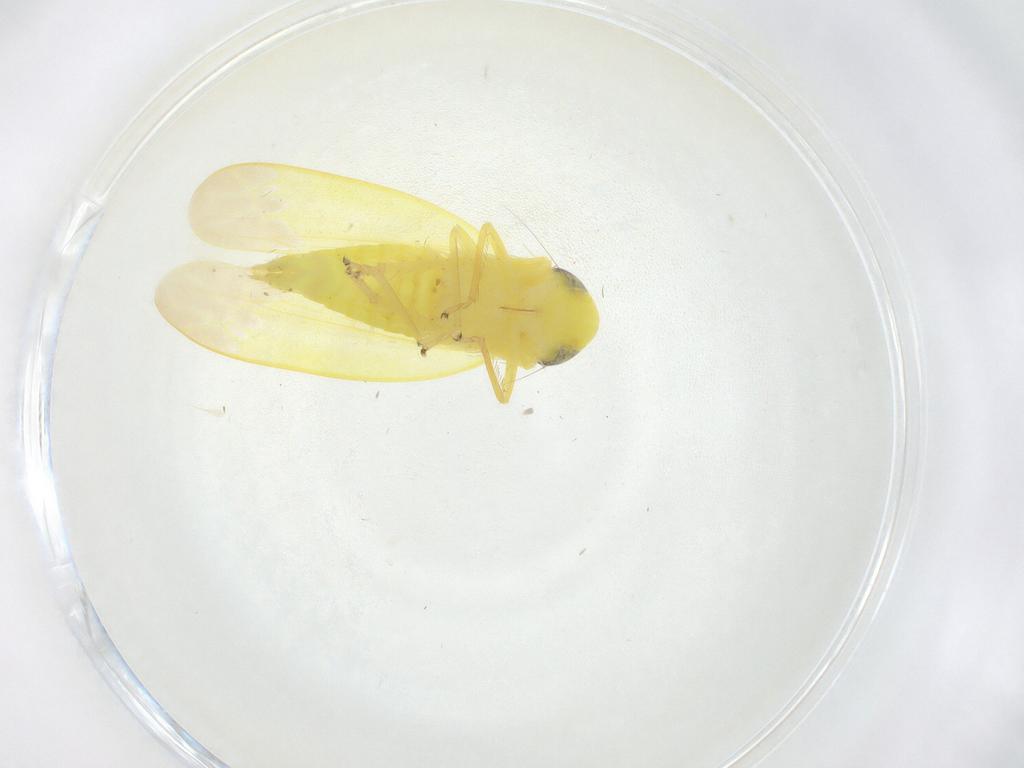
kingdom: Animalia
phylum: Arthropoda
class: Insecta
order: Hemiptera
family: Cicadellidae
